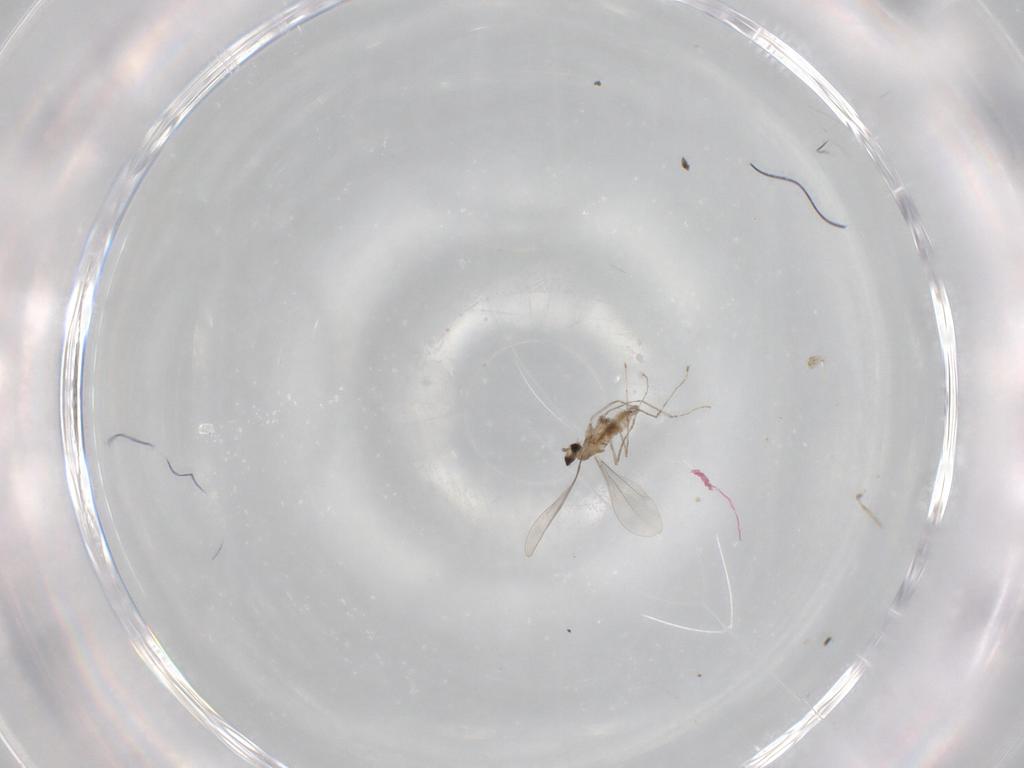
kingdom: Animalia
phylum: Arthropoda
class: Insecta
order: Diptera
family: Cecidomyiidae
